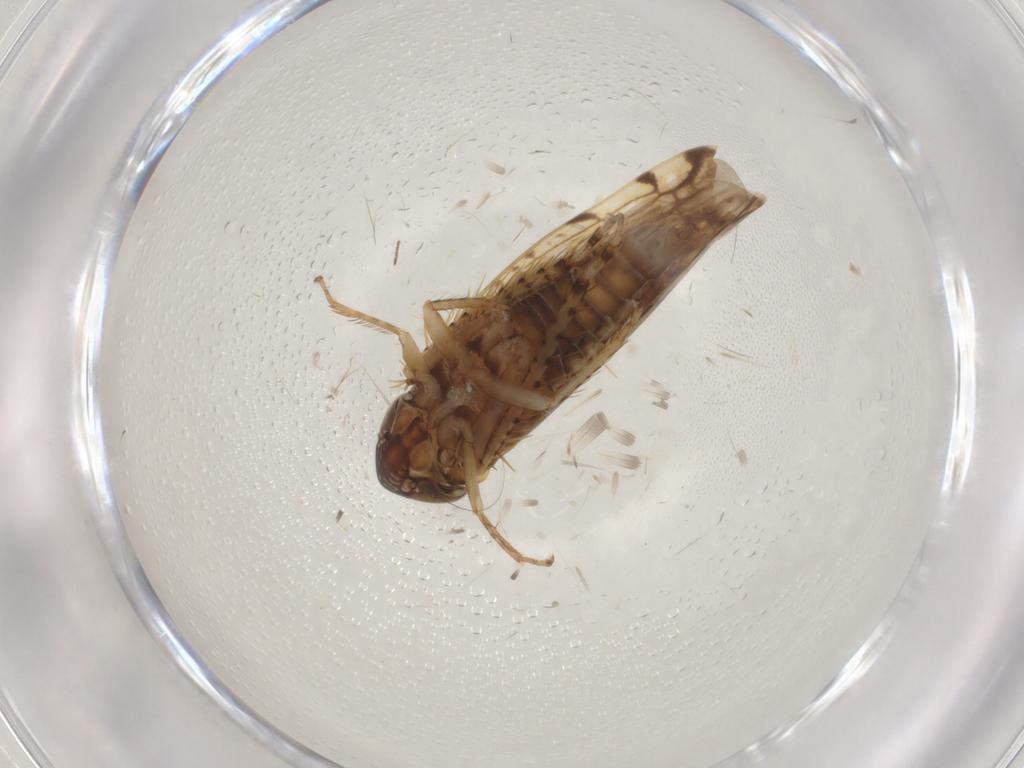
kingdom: Animalia
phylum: Arthropoda
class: Insecta
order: Hemiptera
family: Cicadellidae
